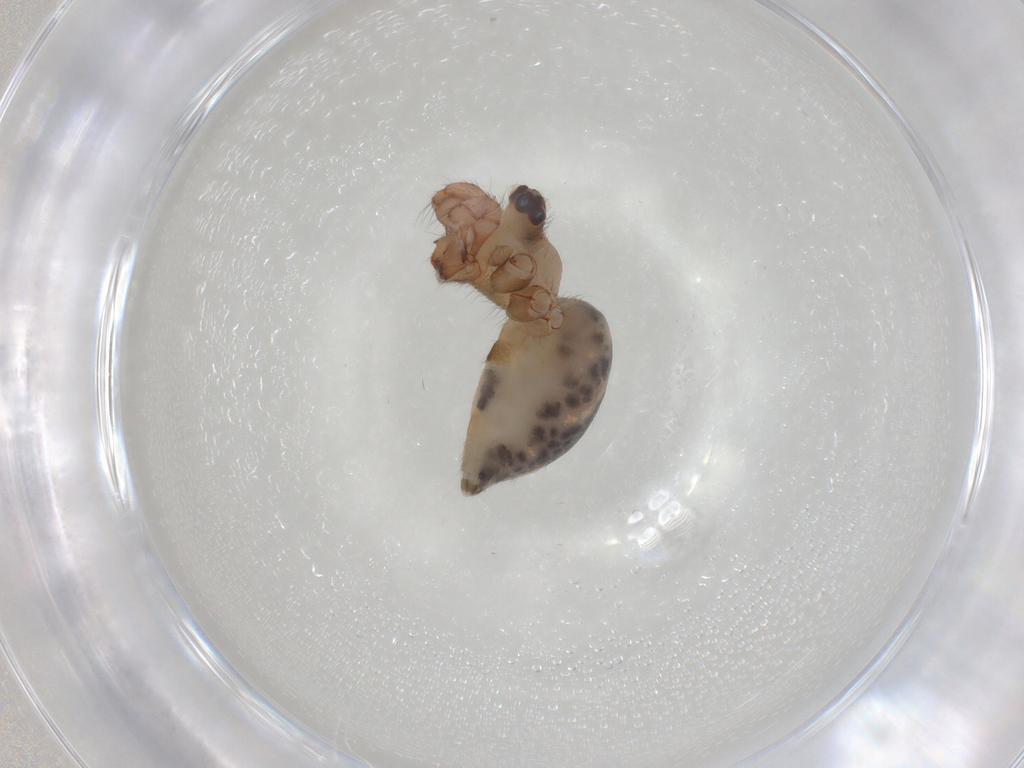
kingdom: Animalia
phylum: Arthropoda
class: Arachnida
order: Araneae
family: Pholcidae
